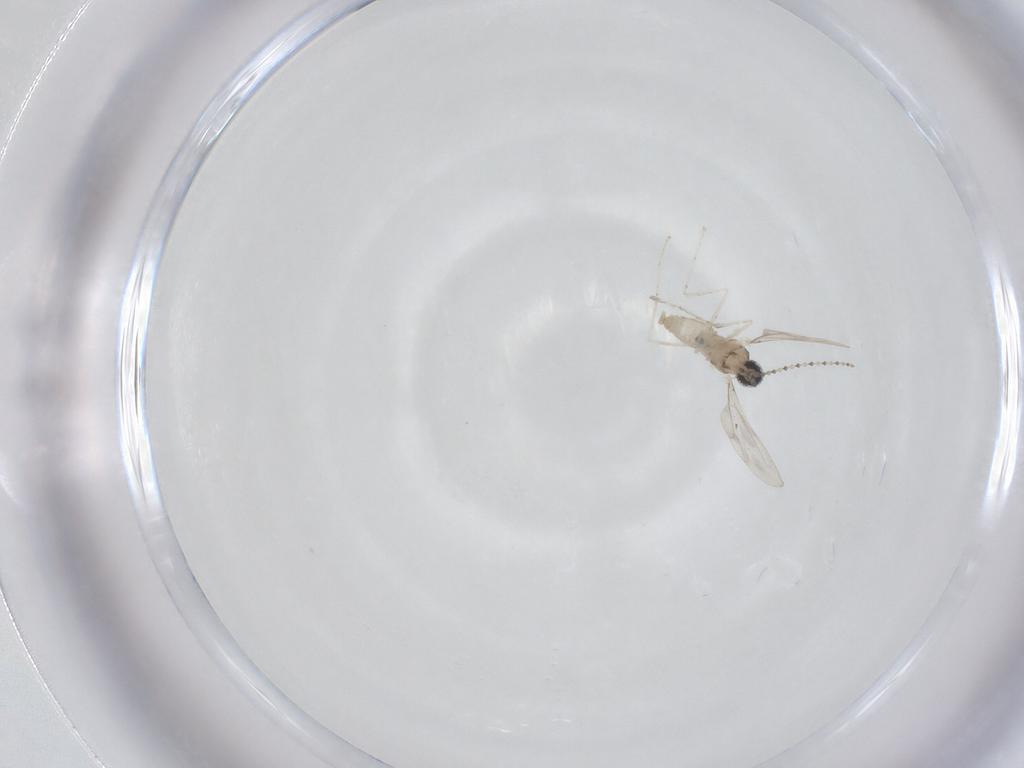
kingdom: Animalia
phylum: Arthropoda
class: Insecta
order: Diptera
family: Cecidomyiidae
